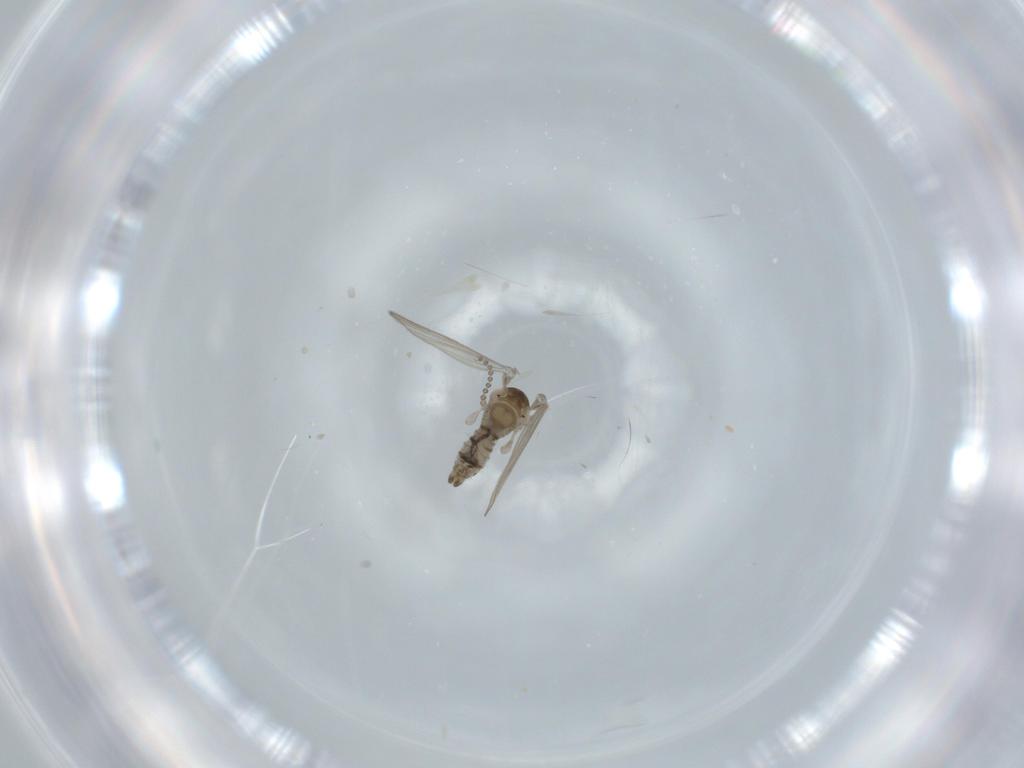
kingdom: Animalia
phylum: Arthropoda
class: Insecta
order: Diptera
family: Psychodidae
